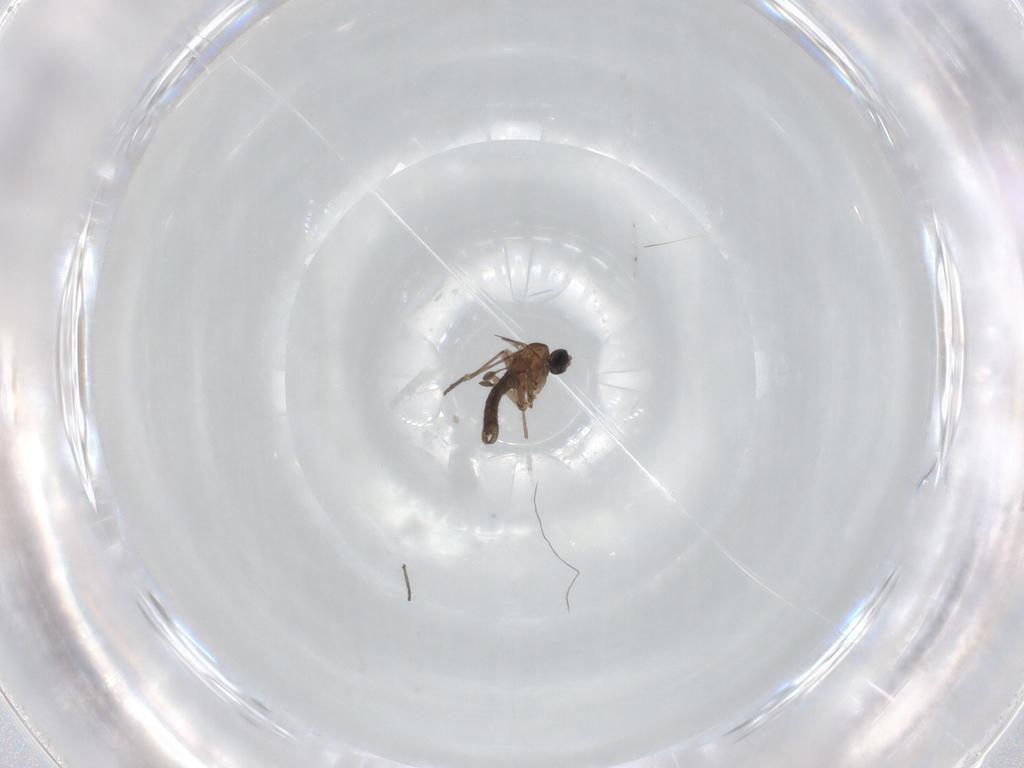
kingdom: Animalia
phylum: Arthropoda
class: Insecta
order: Diptera
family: Sciaridae
